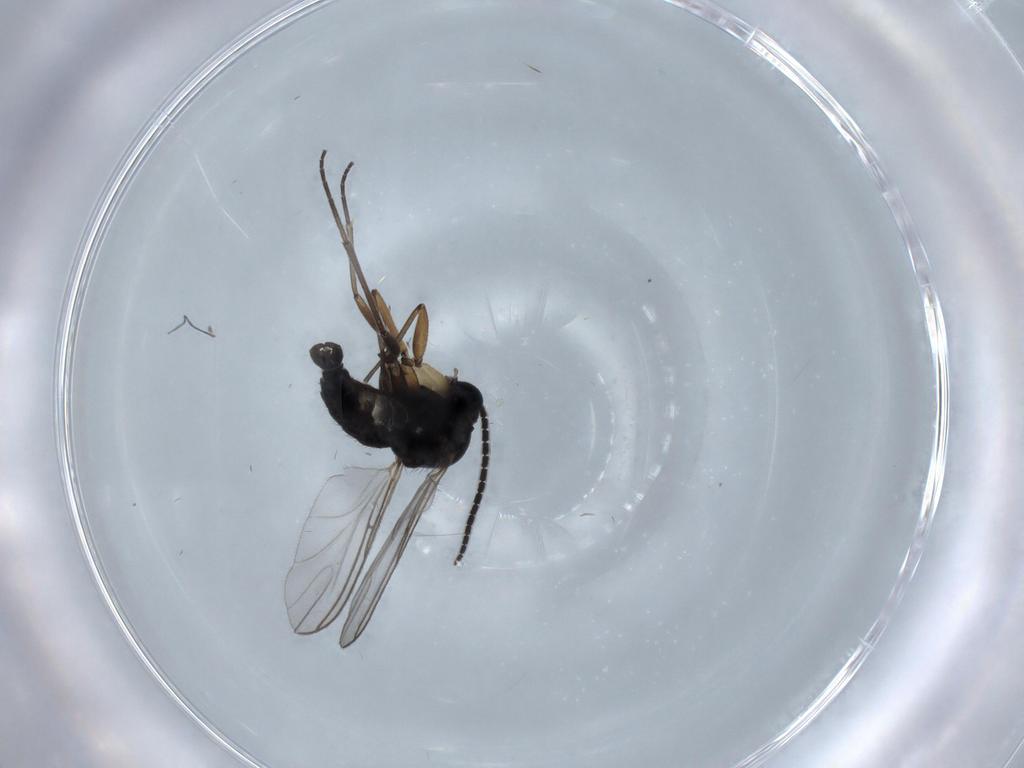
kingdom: Animalia
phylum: Arthropoda
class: Insecta
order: Diptera
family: Sciaridae
